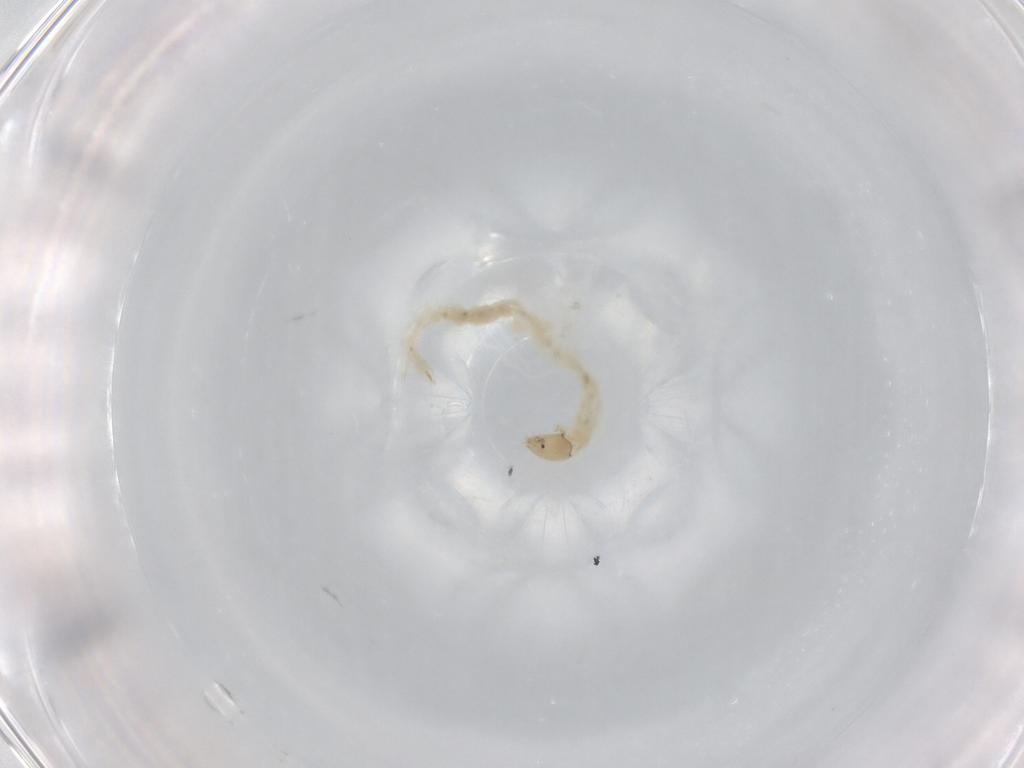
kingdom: Animalia
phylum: Arthropoda
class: Insecta
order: Diptera
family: Chironomidae
